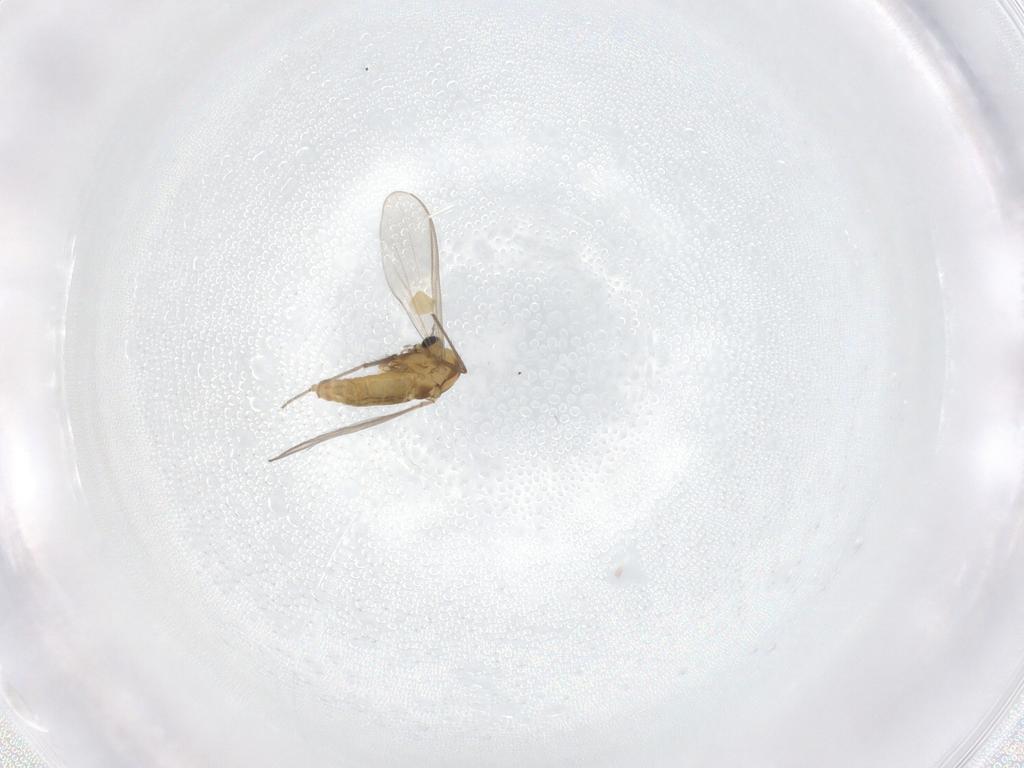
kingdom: Animalia
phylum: Arthropoda
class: Insecta
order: Diptera
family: Chironomidae
